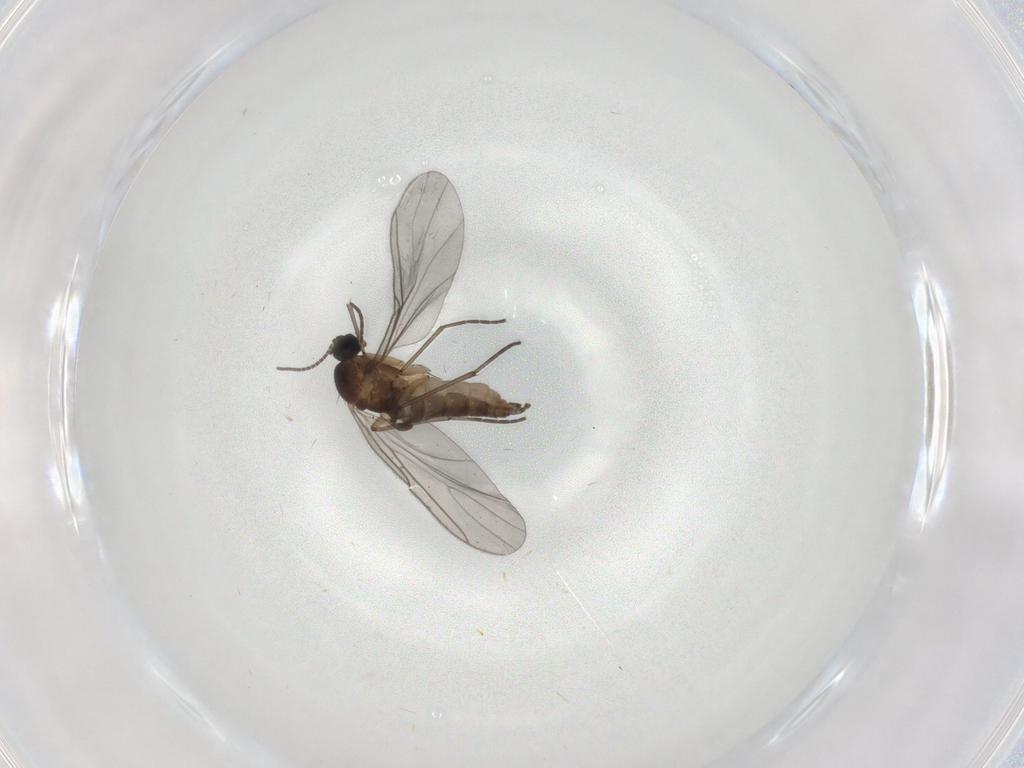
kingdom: Animalia
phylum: Arthropoda
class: Insecta
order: Diptera
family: Sciaridae
